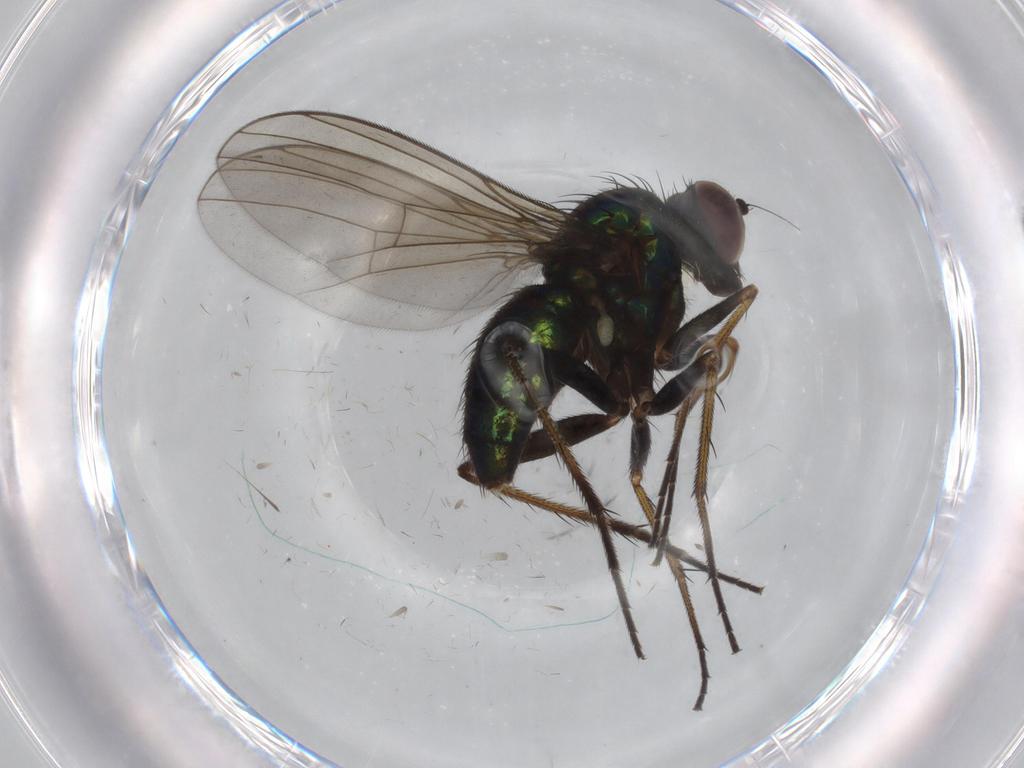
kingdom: Animalia
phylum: Arthropoda
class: Insecta
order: Diptera
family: Dolichopodidae
